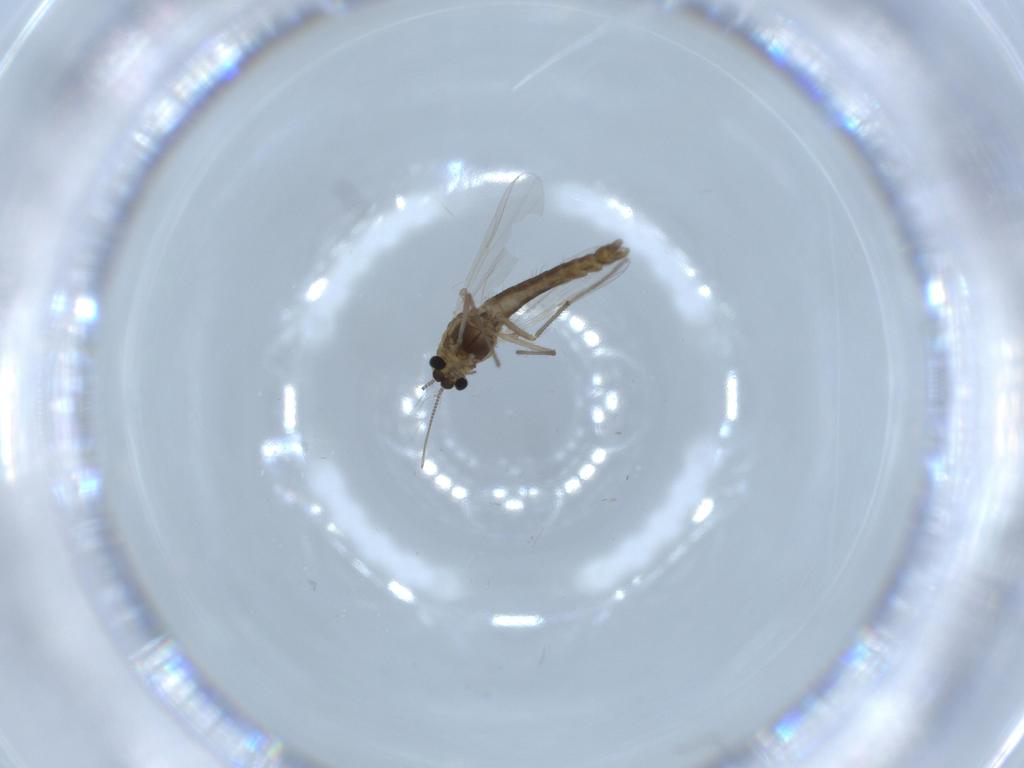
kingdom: Animalia
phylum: Arthropoda
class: Insecta
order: Diptera
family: Chironomidae
